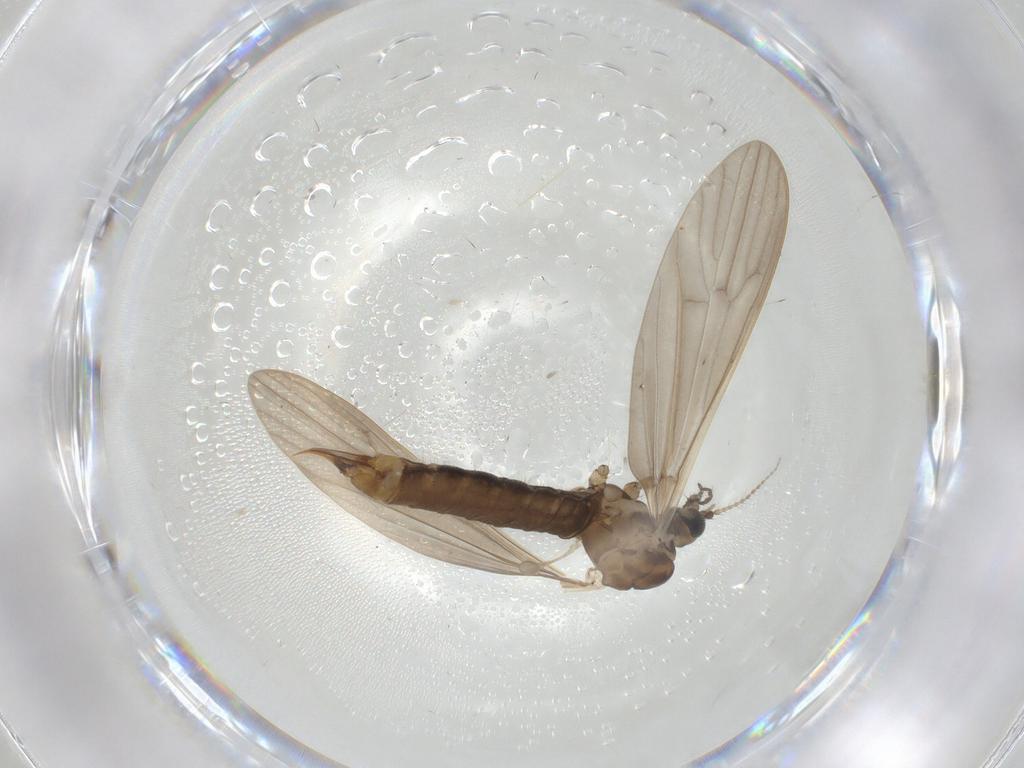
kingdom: Animalia
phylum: Arthropoda
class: Insecta
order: Diptera
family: Phoridae
